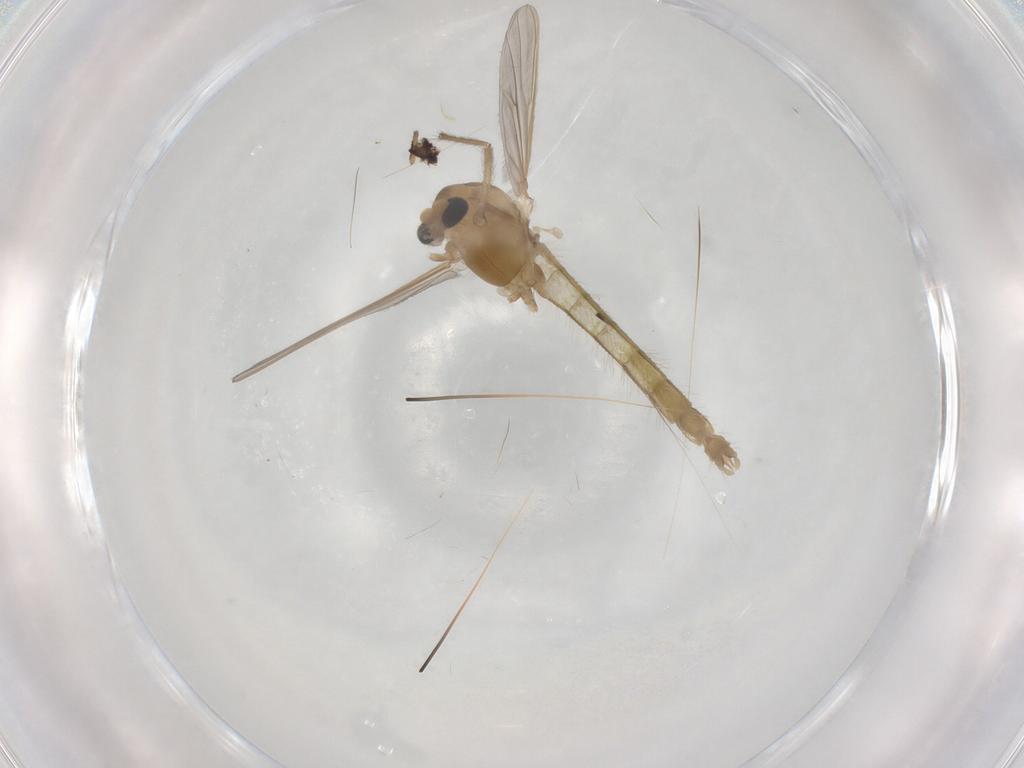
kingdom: Animalia
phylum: Arthropoda
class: Insecta
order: Diptera
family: Chironomidae
